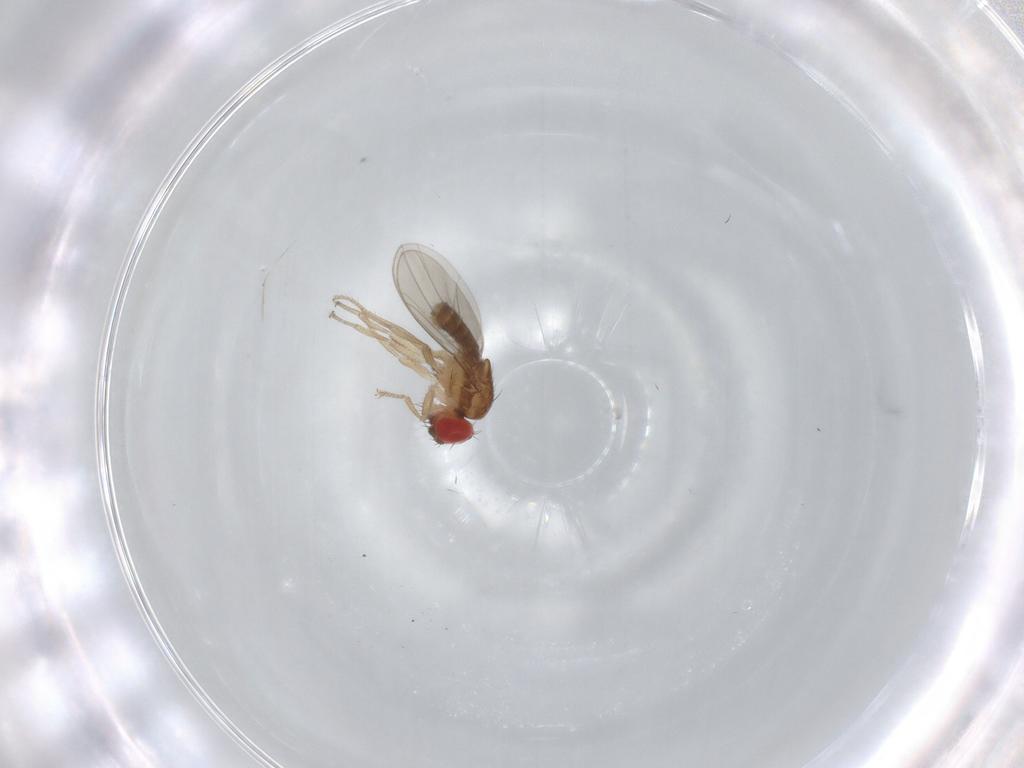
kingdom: Animalia
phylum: Arthropoda
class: Insecta
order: Diptera
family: Drosophilidae
